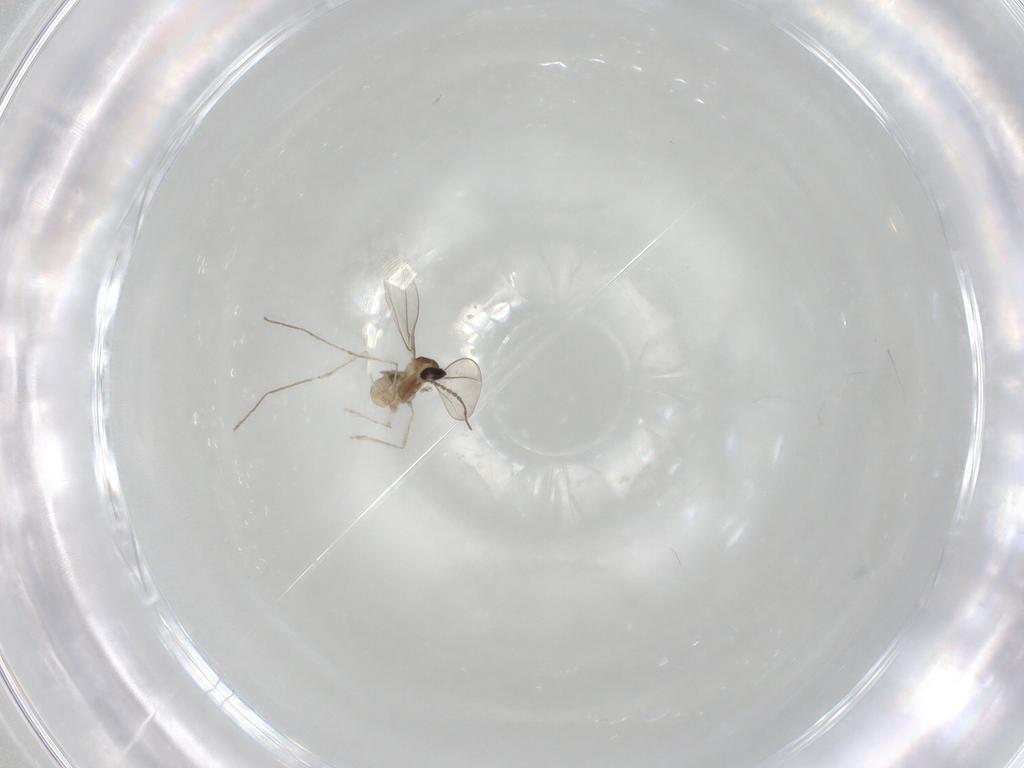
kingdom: Animalia
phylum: Arthropoda
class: Insecta
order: Diptera
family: Cecidomyiidae
